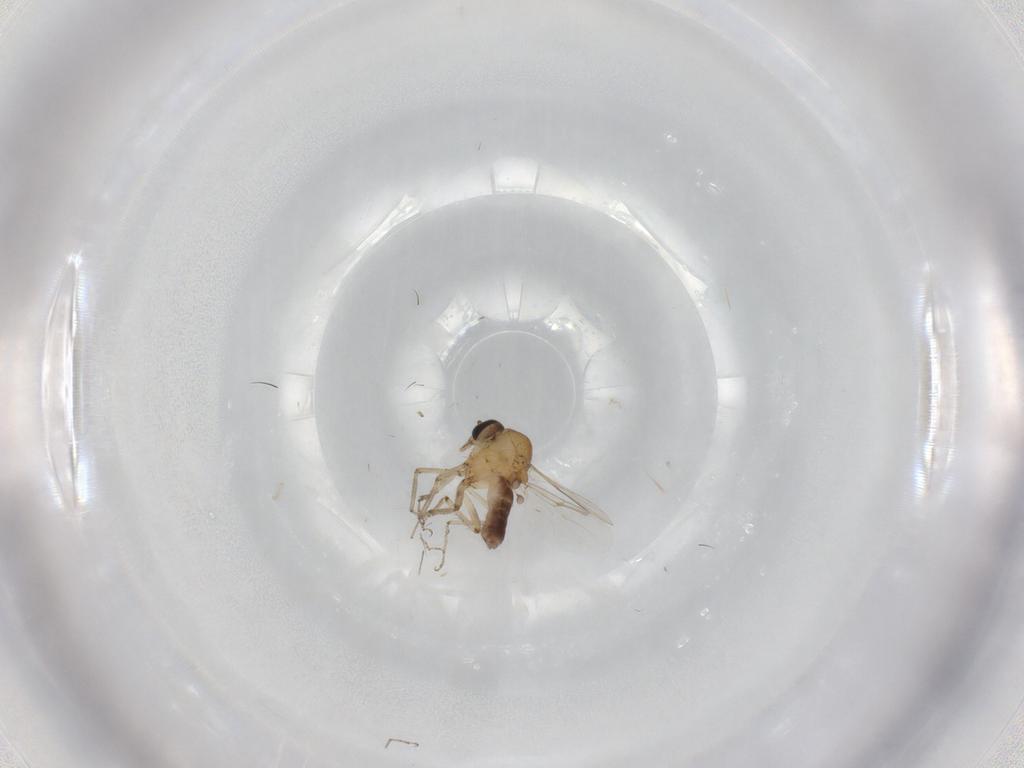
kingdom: Animalia
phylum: Arthropoda
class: Insecta
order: Diptera
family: Ceratopogonidae
